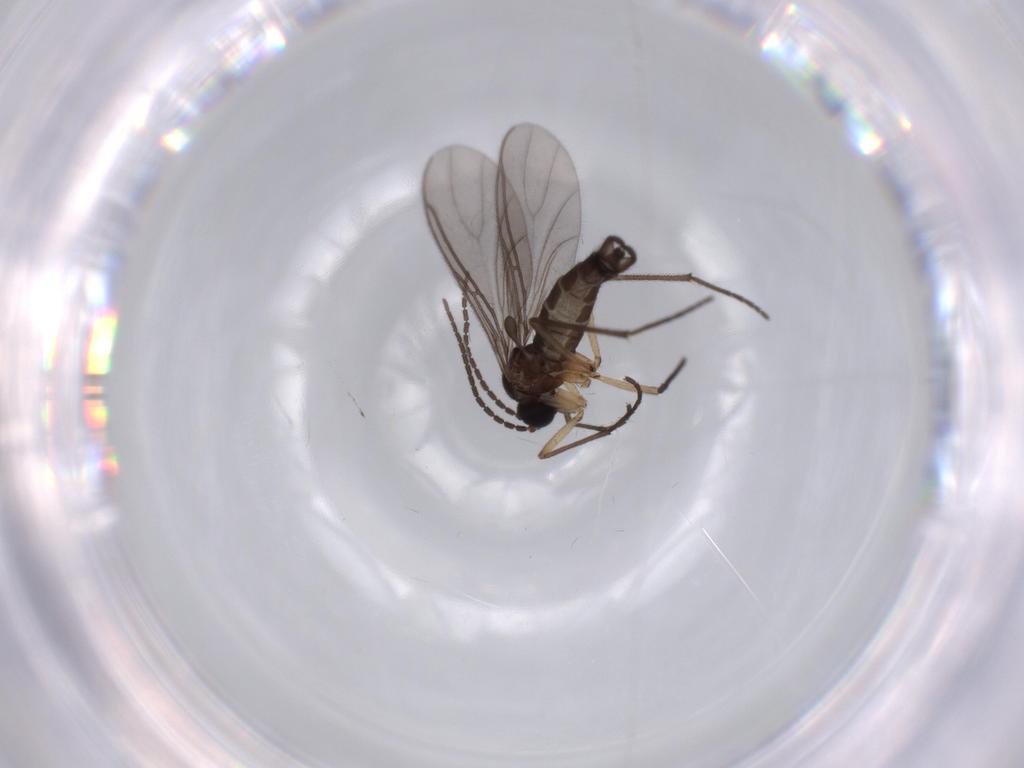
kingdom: Animalia
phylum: Arthropoda
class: Insecta
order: Diptera
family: Sciaridae
